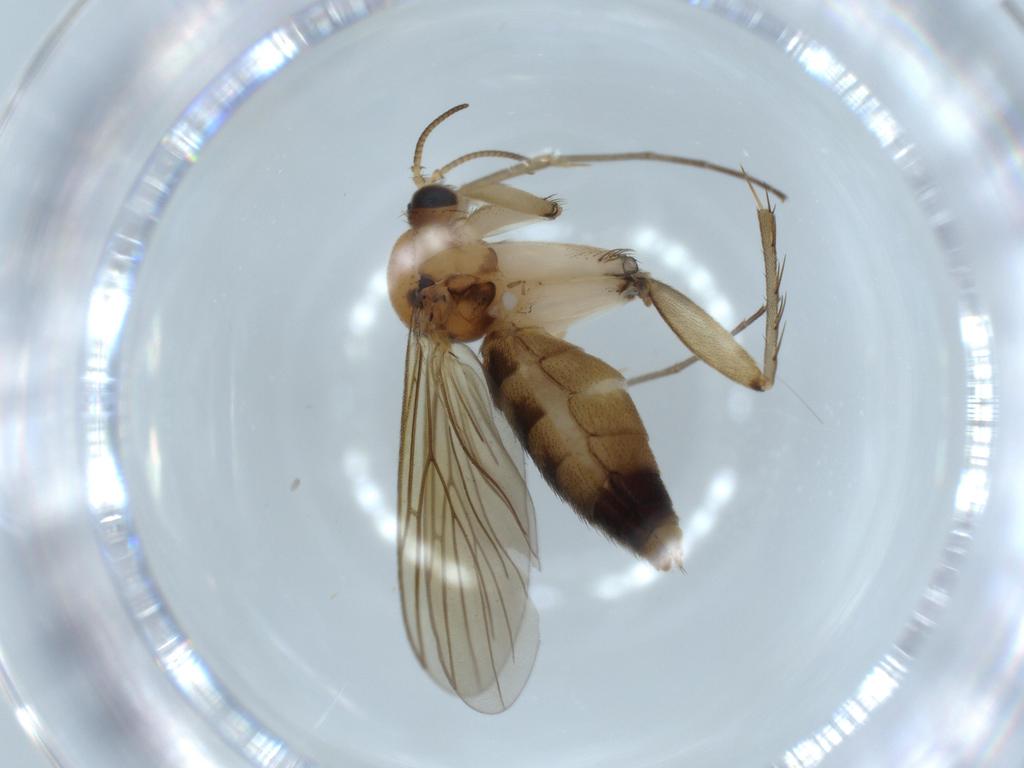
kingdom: Animalia
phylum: Arthropoda
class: Insecta
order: Diptera
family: Mycetophilidae
